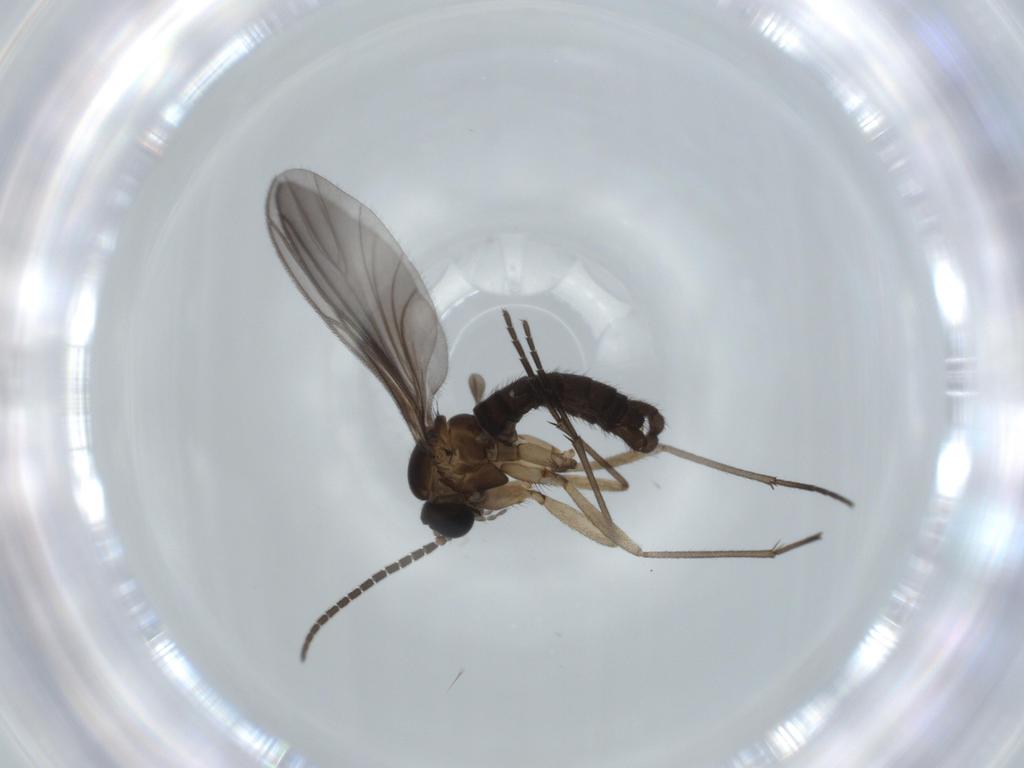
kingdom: Animalia
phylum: Arthropoda
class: Insecta
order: Diptera
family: Sciaridae
